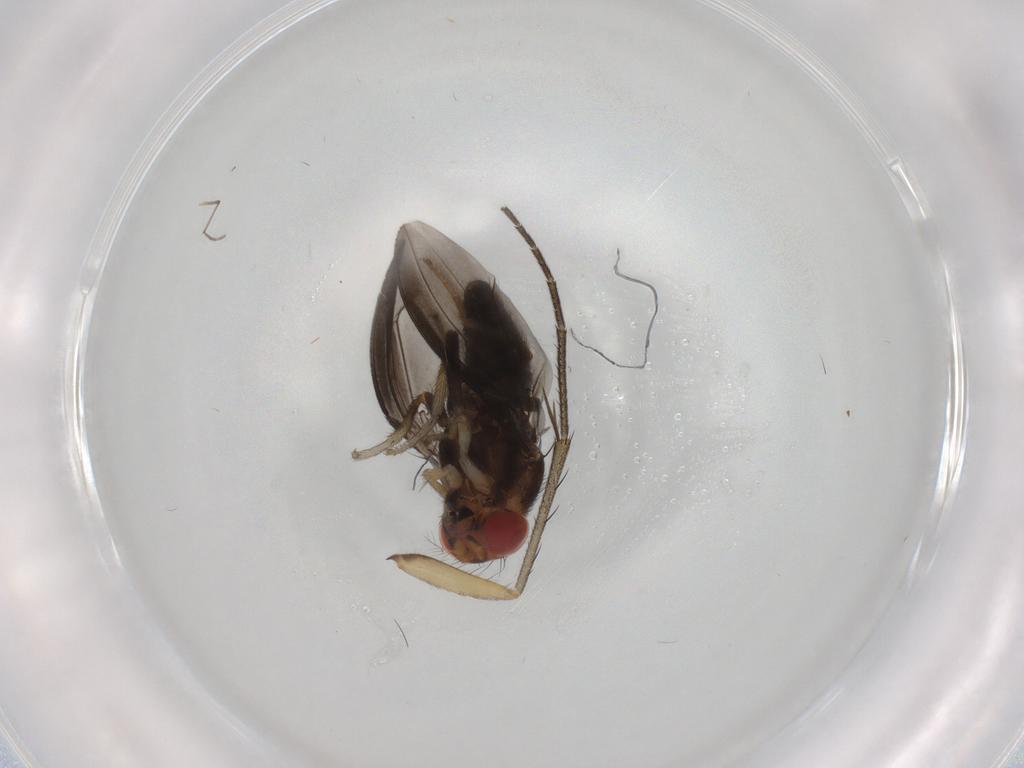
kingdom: Animalia
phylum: Arthropoda
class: Insecta
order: Diptera
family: Drosophilidae
